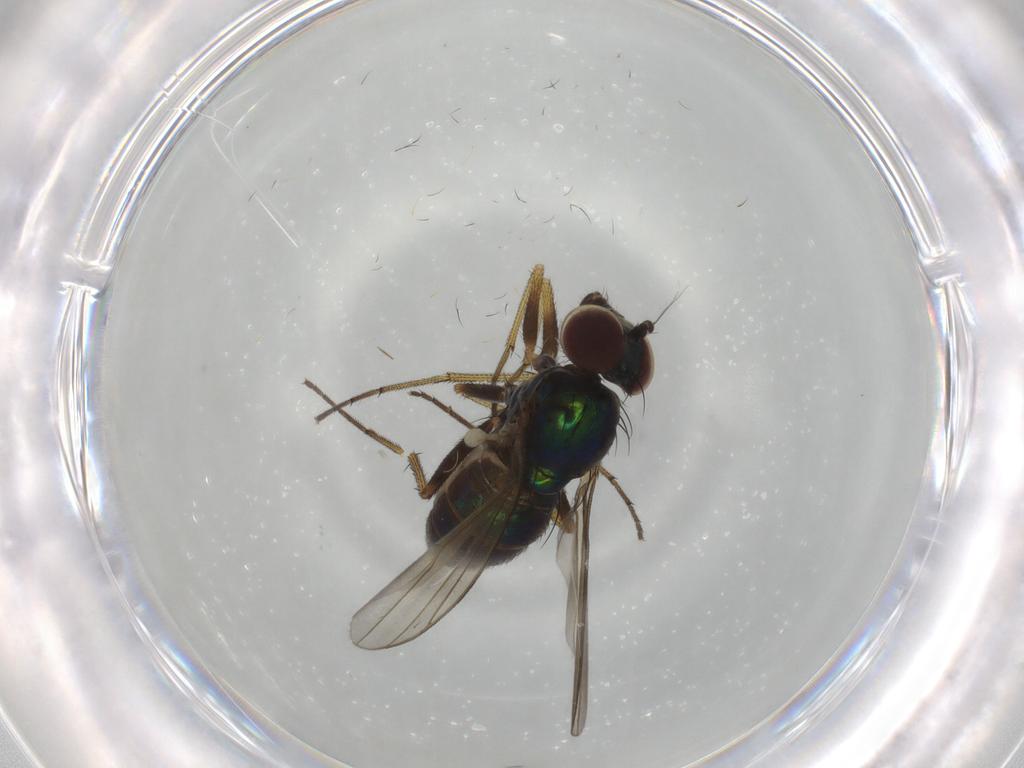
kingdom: Animalia
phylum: Arthropoda
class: Insecta
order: Diptera
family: Dolichopodidae
